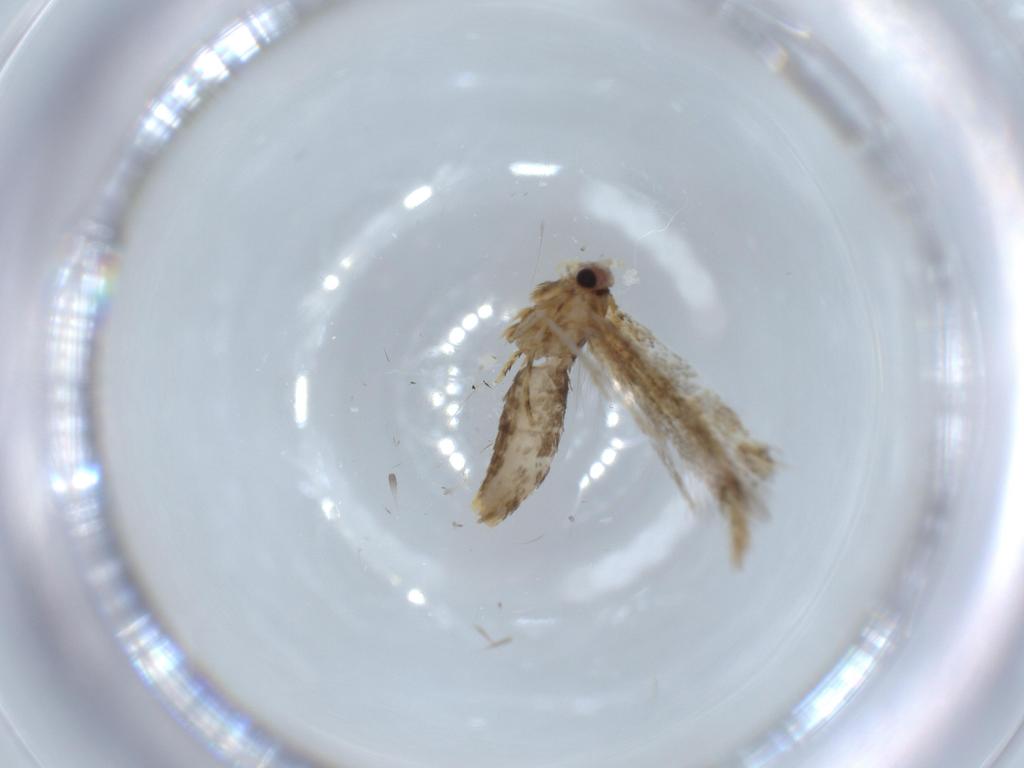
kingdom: Animalia
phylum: Arthropoda
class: Insecta
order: Lepidoptera
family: Tineidae
